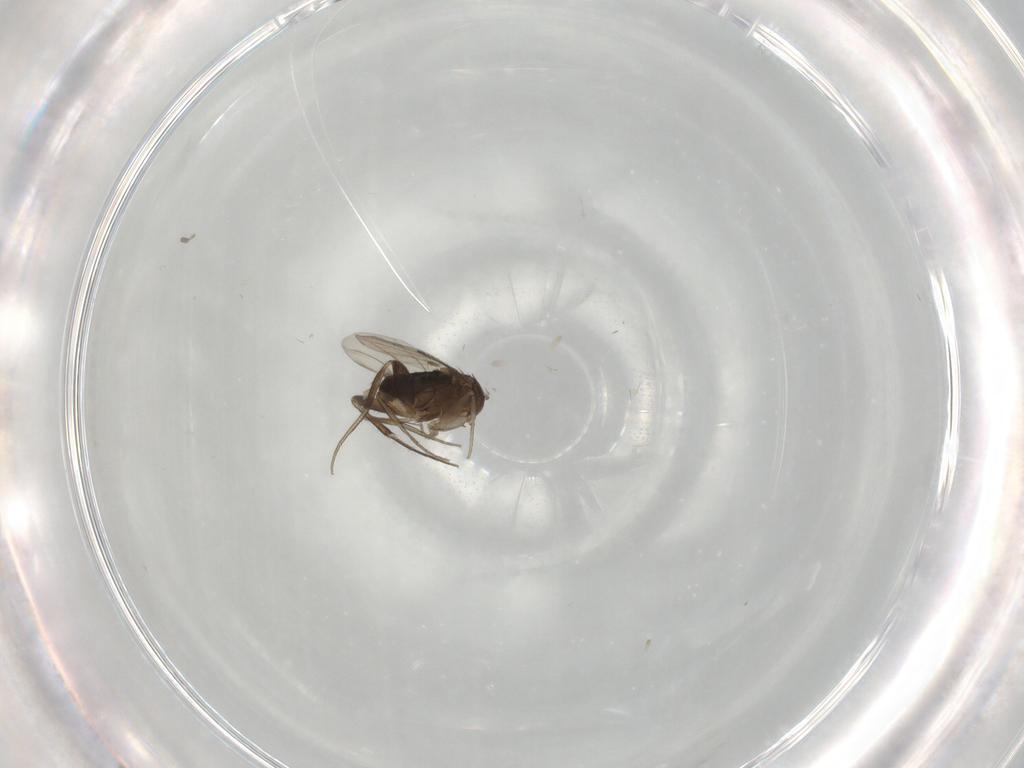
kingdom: Animalia
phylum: Arthropoda
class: Insecta
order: Diptera
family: Phoridae
